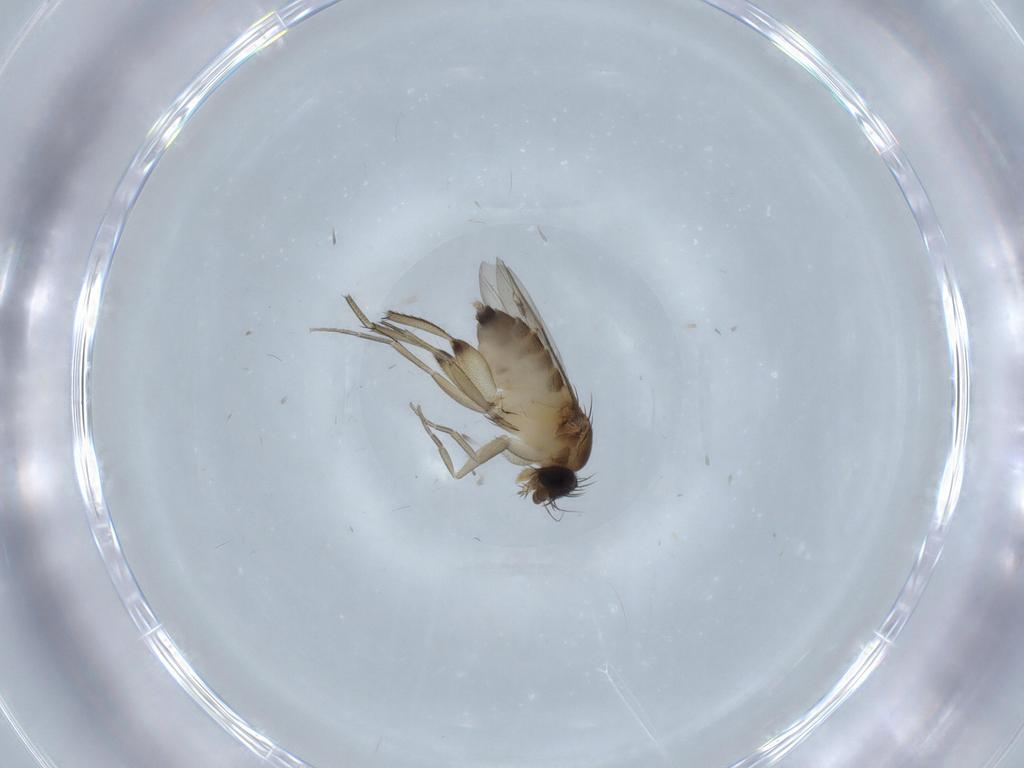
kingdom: Animalia
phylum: Arthropoda
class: Insecta
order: Diptera
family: Phoridae
